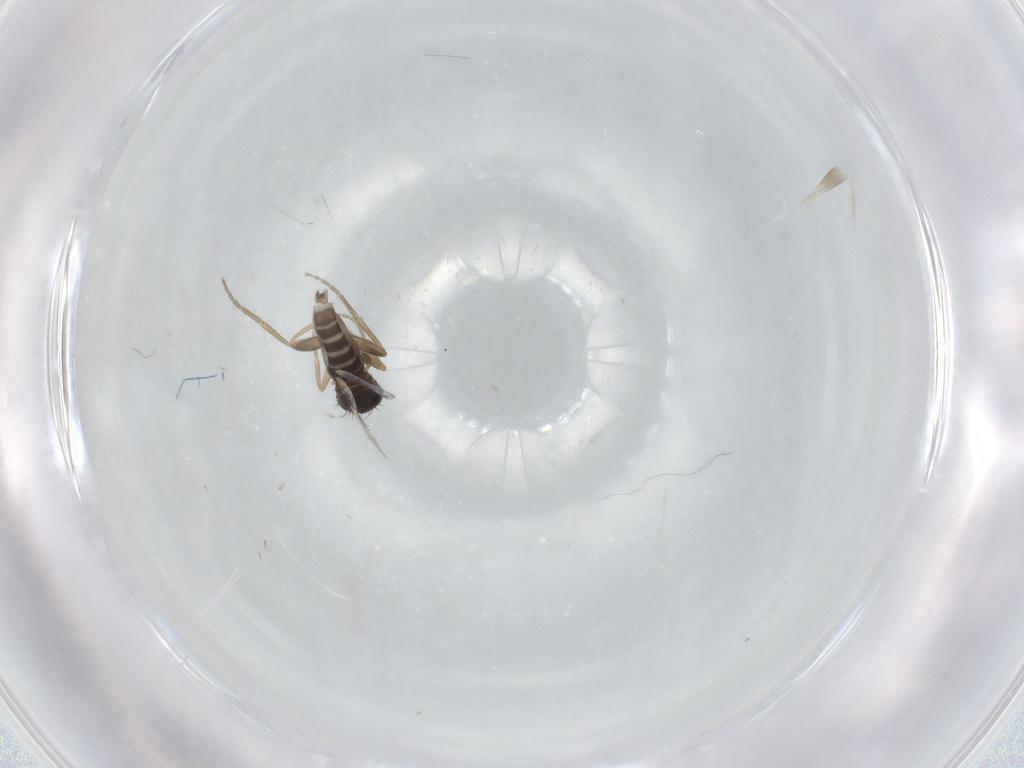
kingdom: Animalia
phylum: Arthropoda
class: Insecta
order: Diptera
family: Phoridae
